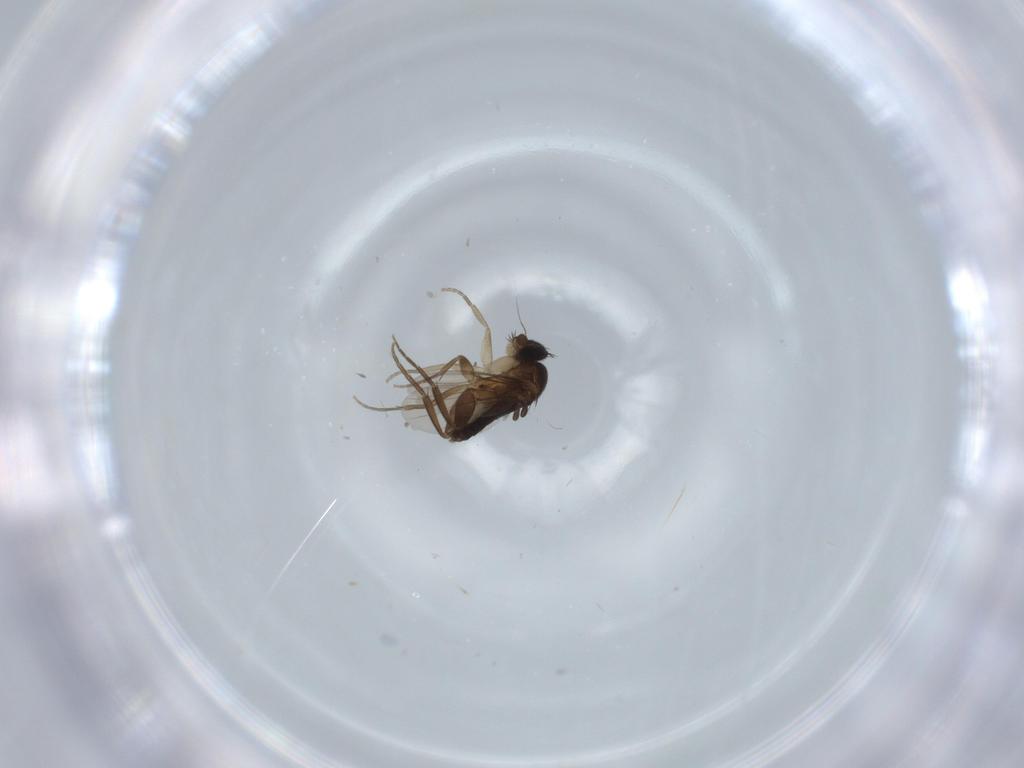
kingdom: Animalia
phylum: Arthropoda
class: Insecta
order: Diptera
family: Phoridae
